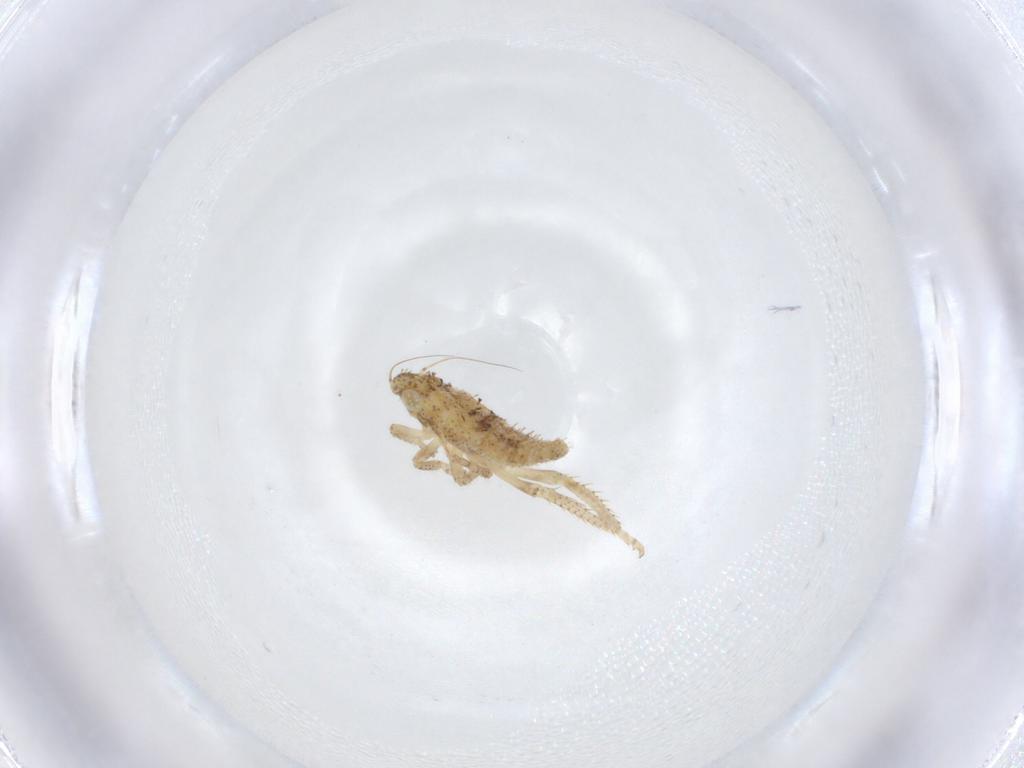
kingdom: Animalia
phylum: Arthropoda
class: Insecta
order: Hemiptera
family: Cicadellidae
